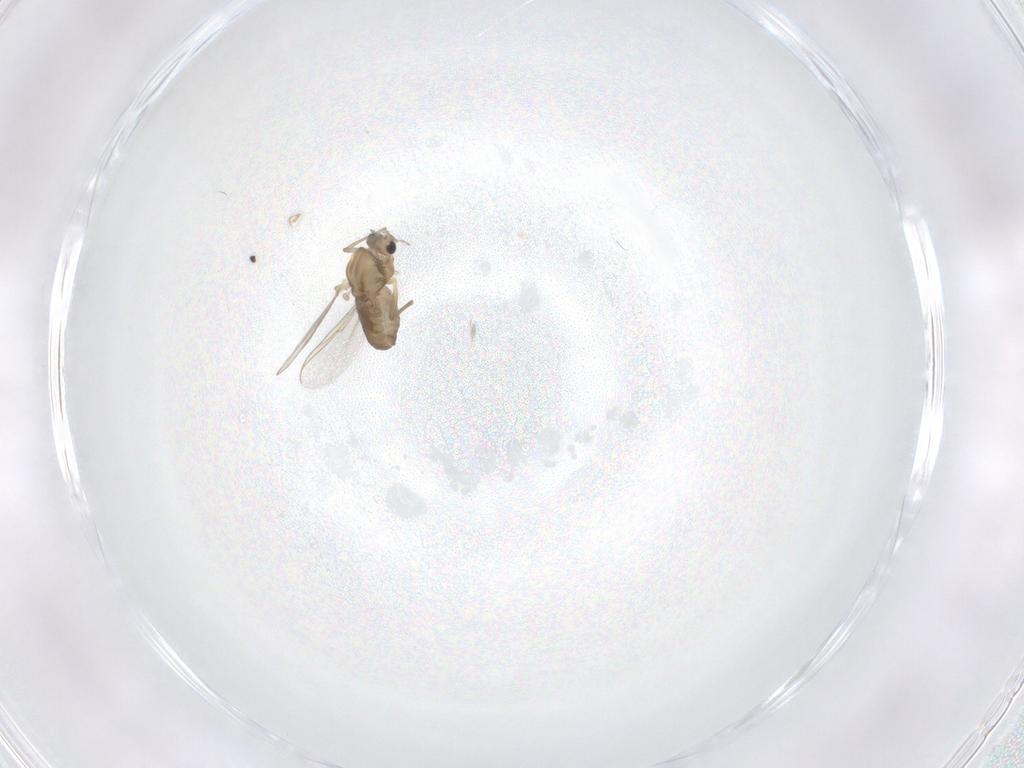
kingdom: Animalia
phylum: Arthropoda
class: Insecta
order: Diptera
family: Chironomidae
